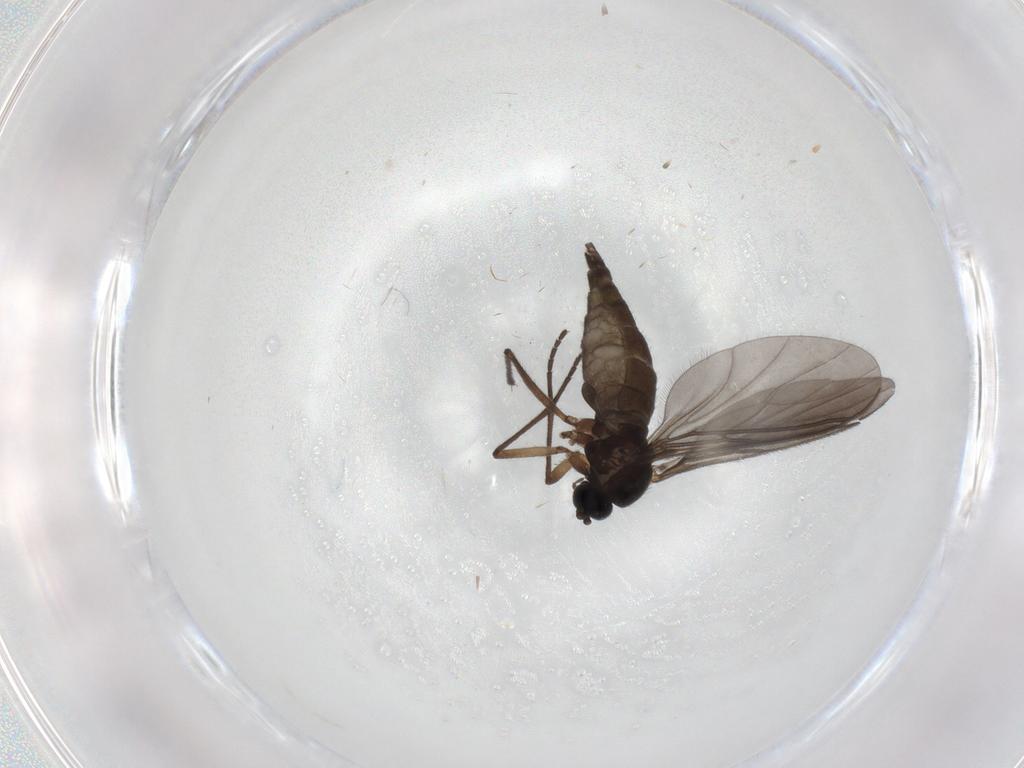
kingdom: Animalia
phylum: Arthropoda
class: Insecta
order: Diptera
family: Sciaridae
